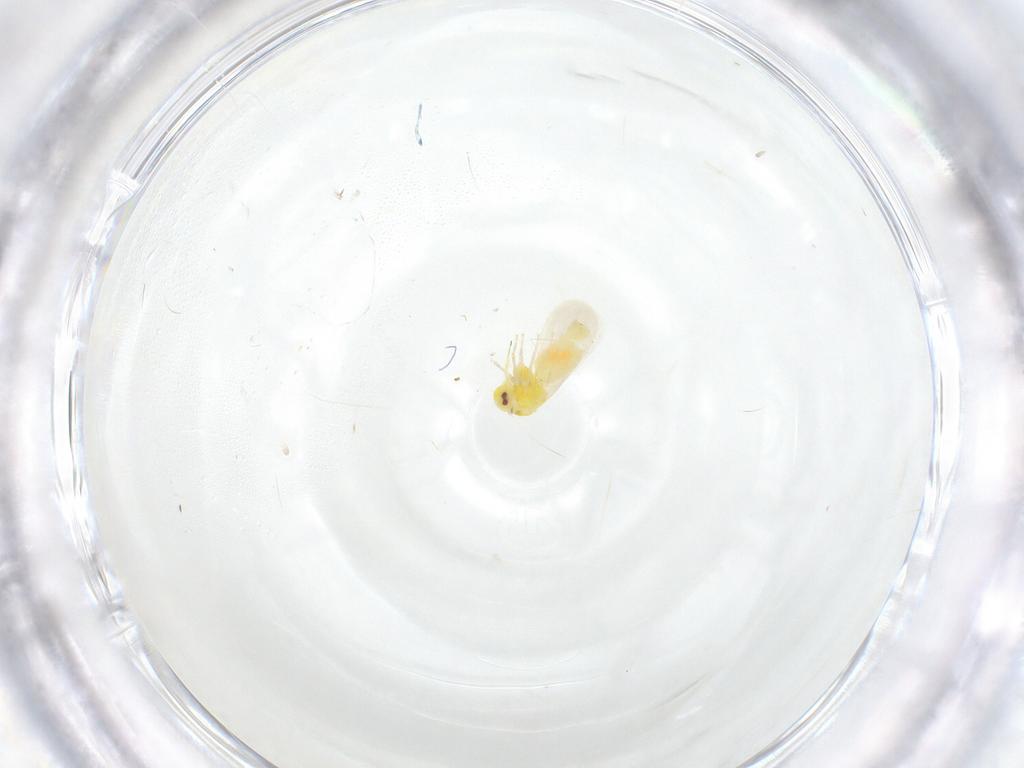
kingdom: Animalia
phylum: Arthropoda
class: Insecta
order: Hemiptera
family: Aleyrodidae
